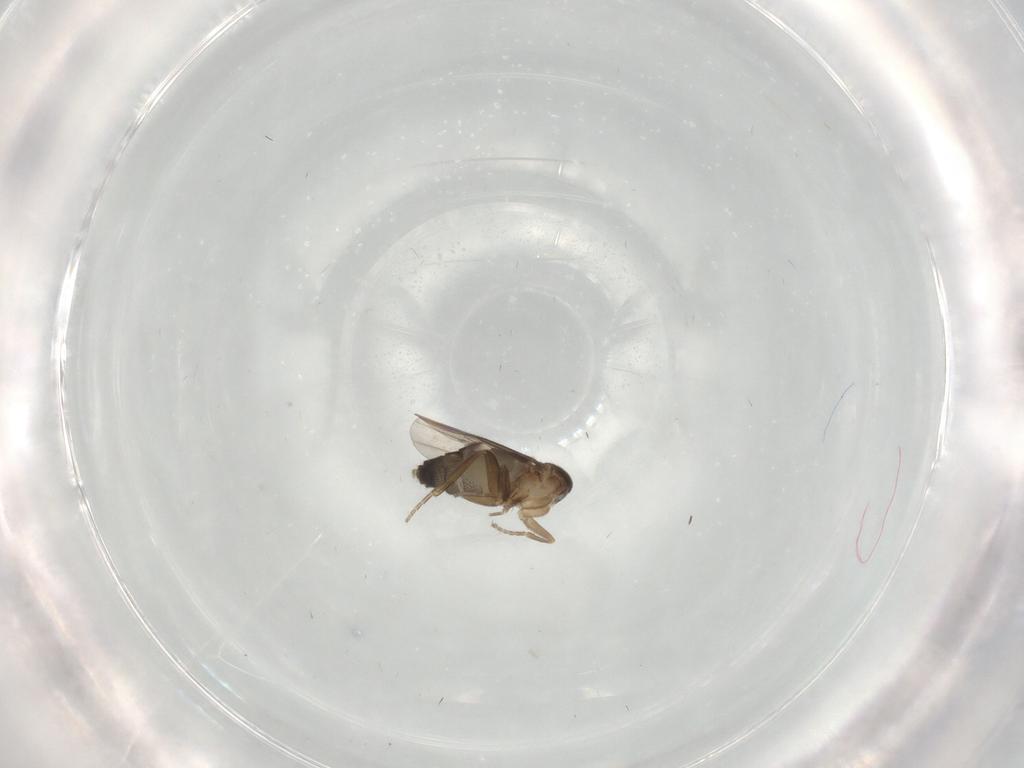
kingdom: Animalia
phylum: Arthropoda
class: Insecta
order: Diptera
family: Phoridae
